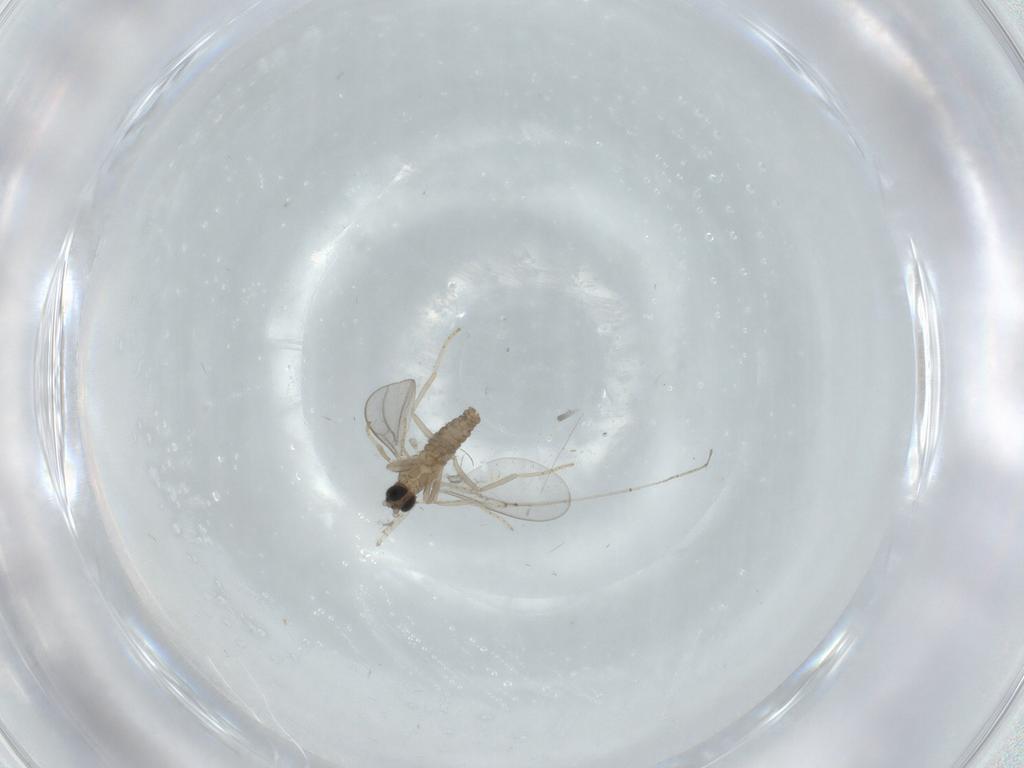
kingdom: Animalia
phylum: Arthropoda
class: Insecta
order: Diptera
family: Cecidomyiidae
